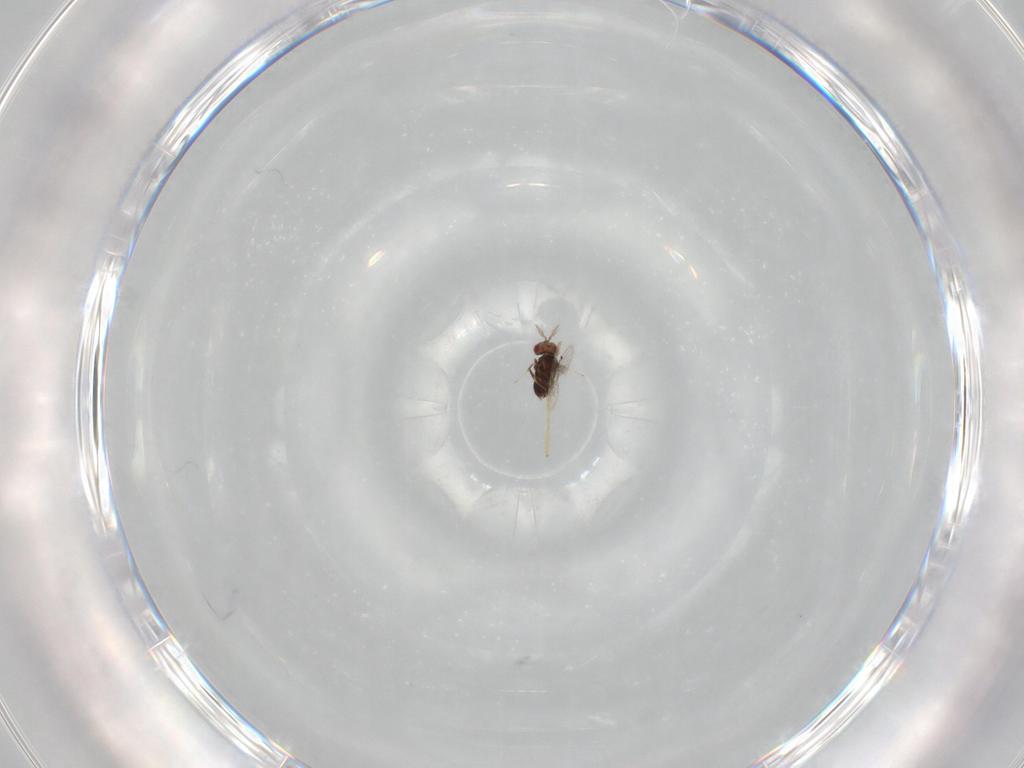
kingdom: Animalia
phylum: Arthropoda
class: Insecta
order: Hymenoptera
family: Trichogrammatidae
